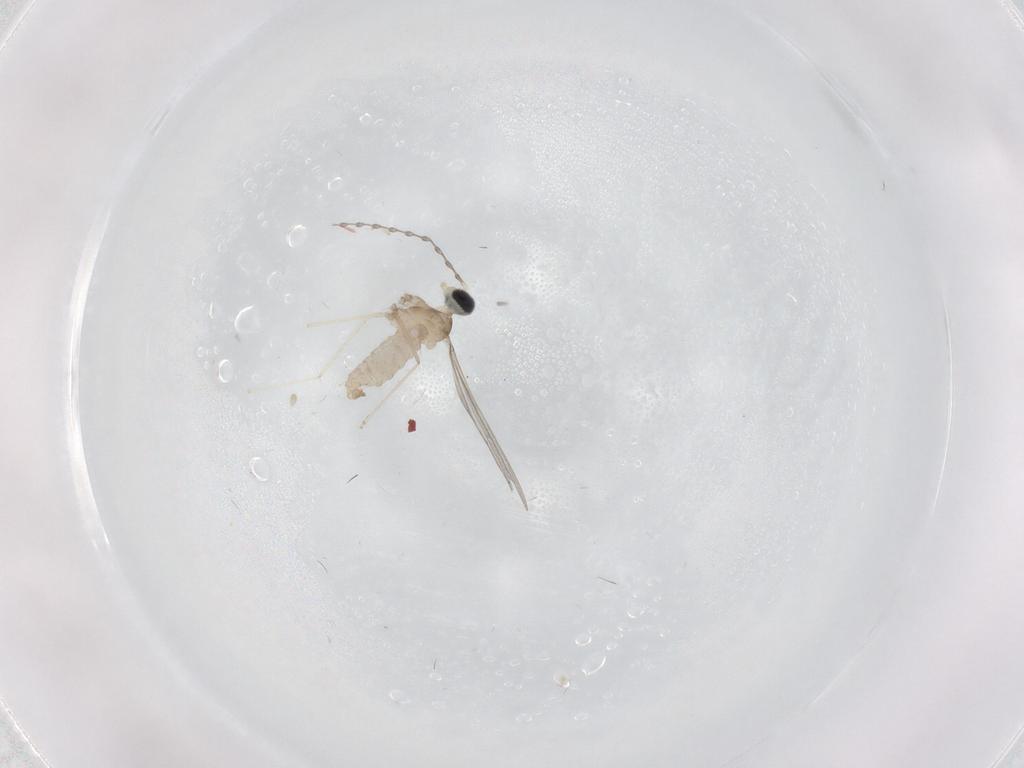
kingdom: Animalia
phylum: Arthropoda
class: Insecta
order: Diptera
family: Cecidomyiidae
